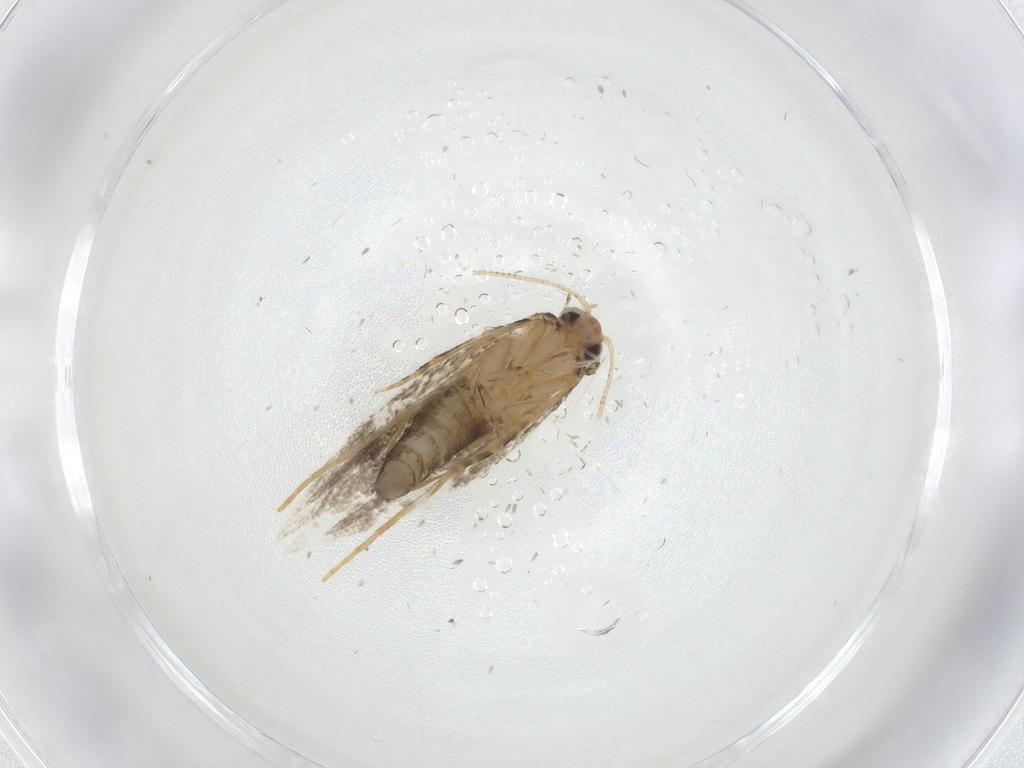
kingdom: Animalia
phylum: Arthropoda
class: Insecta
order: Lepidoptera
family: Tineidae
